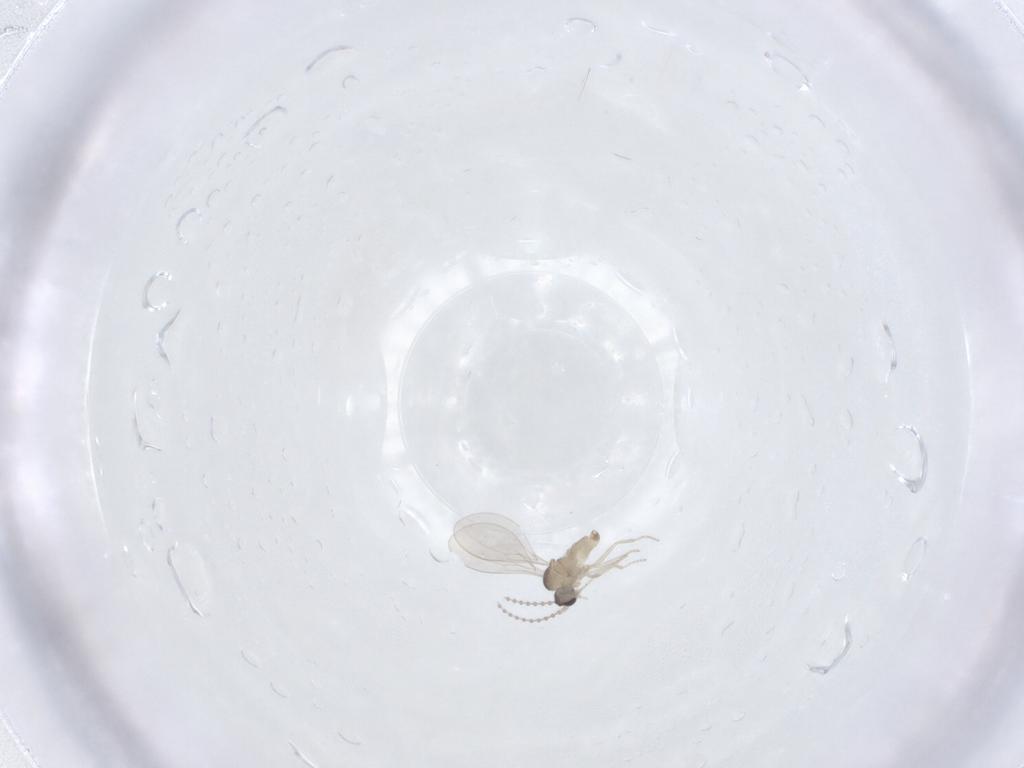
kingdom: Animalia
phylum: Arthropoda
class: Insecta
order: Diptera
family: Cecidomyiidae
